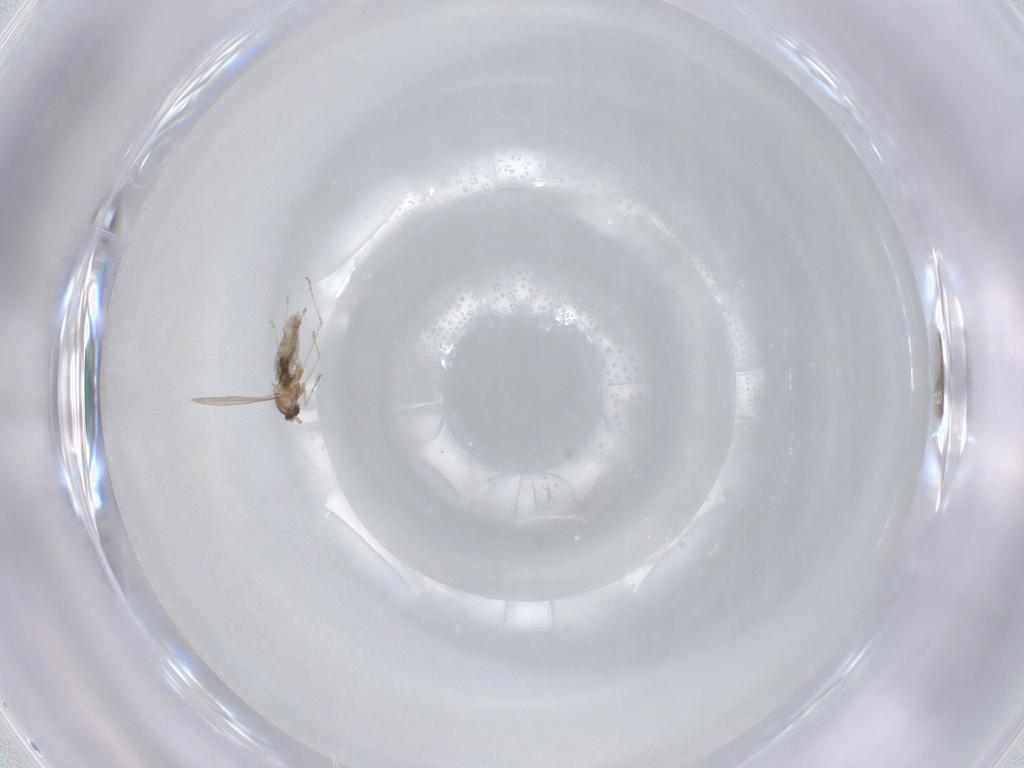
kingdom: Animalia
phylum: Arthropoda
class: Insecta
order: Diptera
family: Cecidomyiidae
